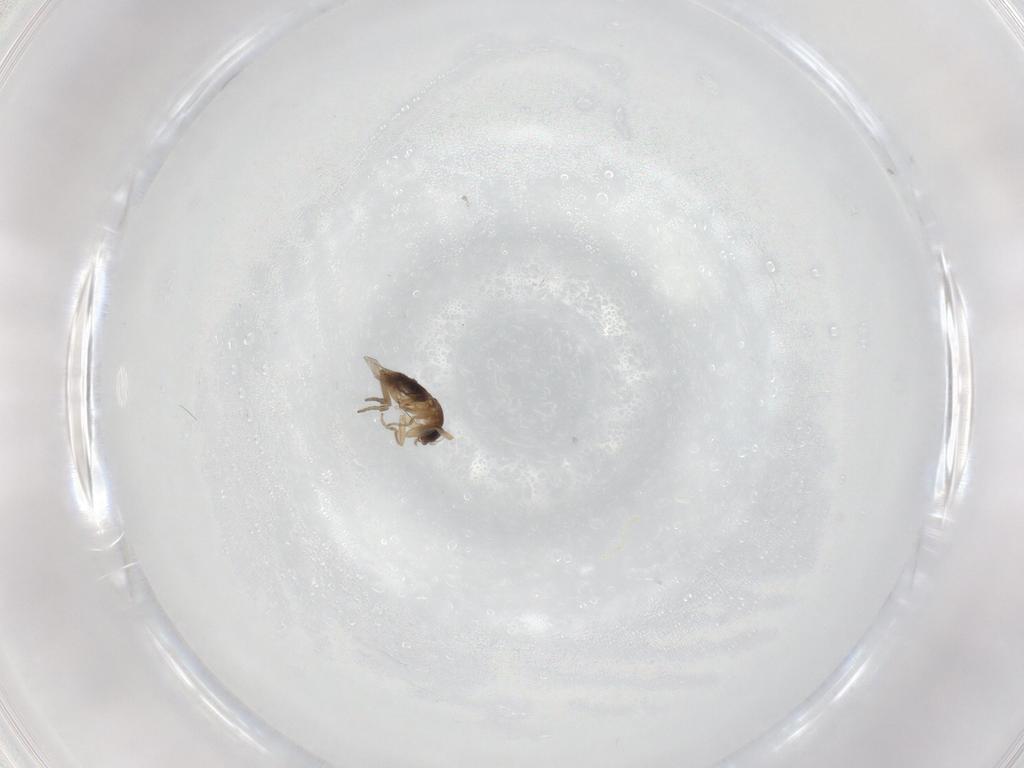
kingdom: Animalia
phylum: Arthropoda
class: Insecta
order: Diptera
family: Phoridae
